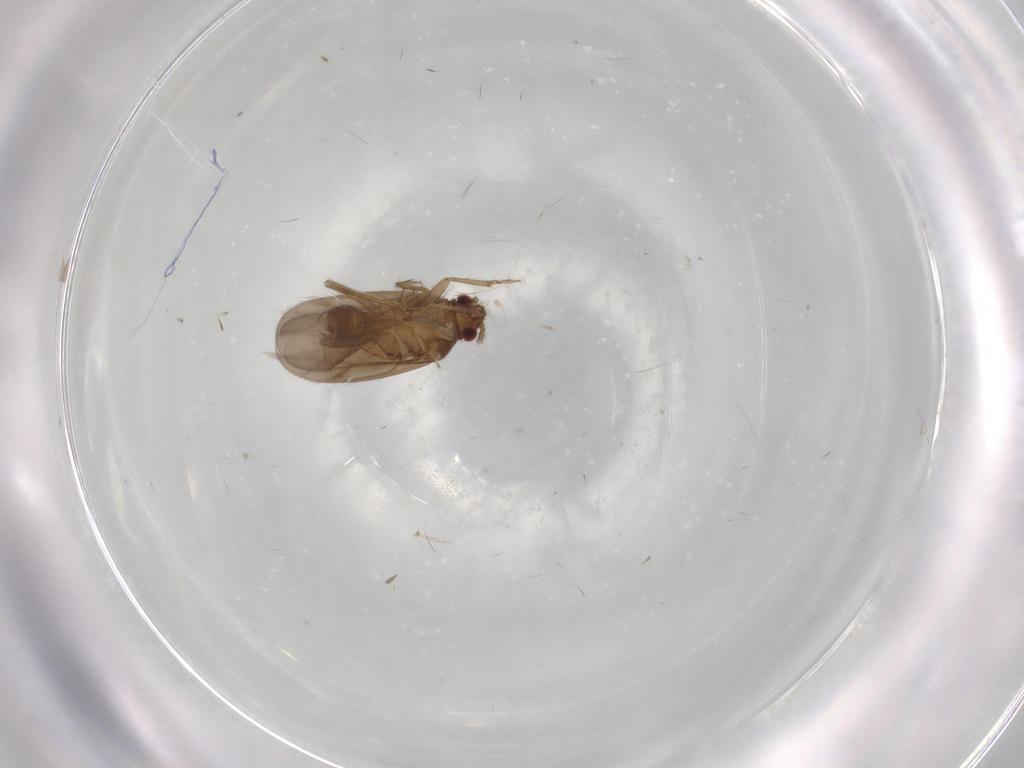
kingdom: Animalia
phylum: Arthropoda
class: Insecta
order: Hemiptera
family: Ceratocombidae
